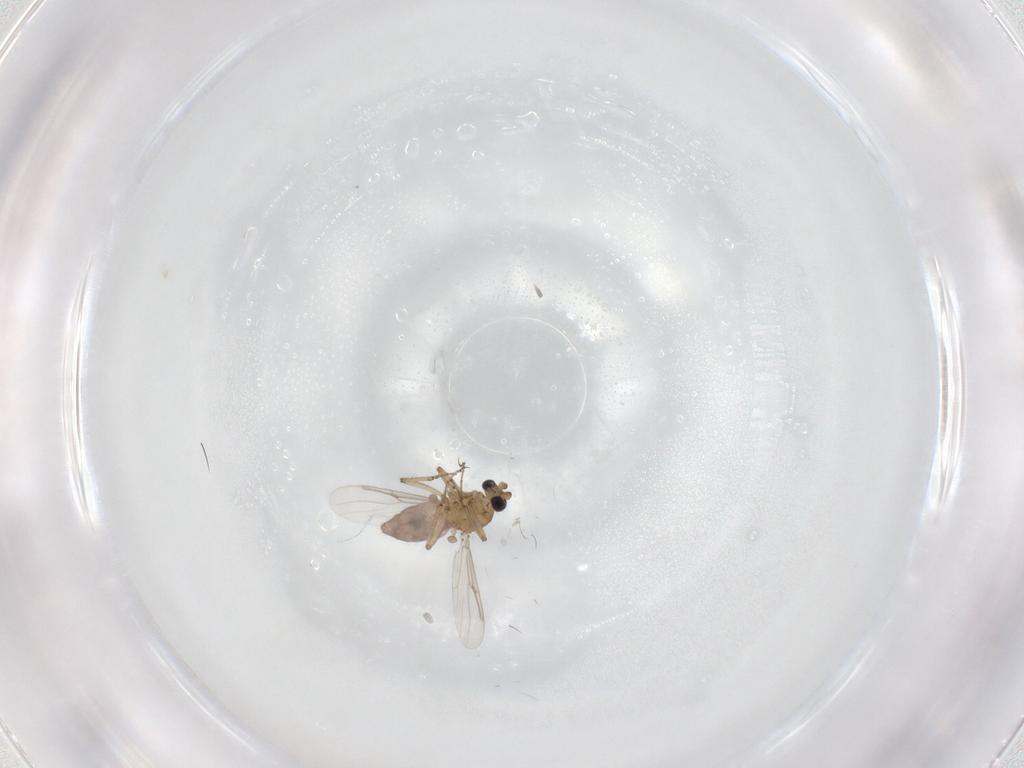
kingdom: Animalia
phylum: Arthropoda
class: Insecta
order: Diptera
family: Ceratopogonidae
